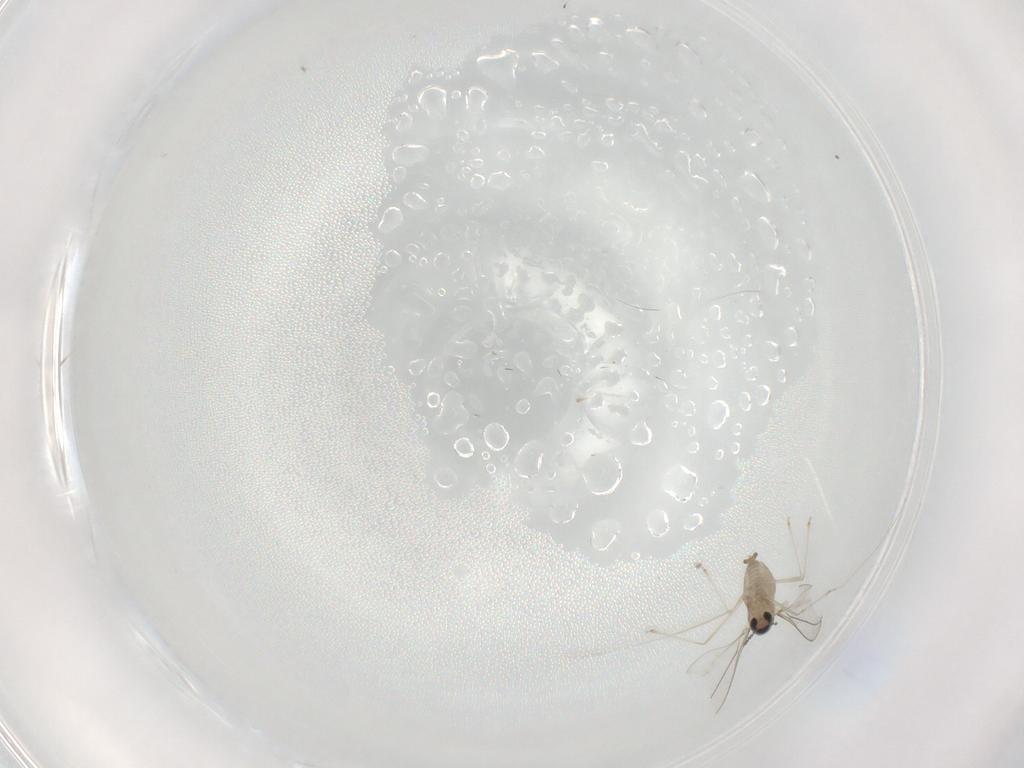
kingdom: Animalia
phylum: Arthropoda
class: Insecta
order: Diptera
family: Cecidomyiidae
